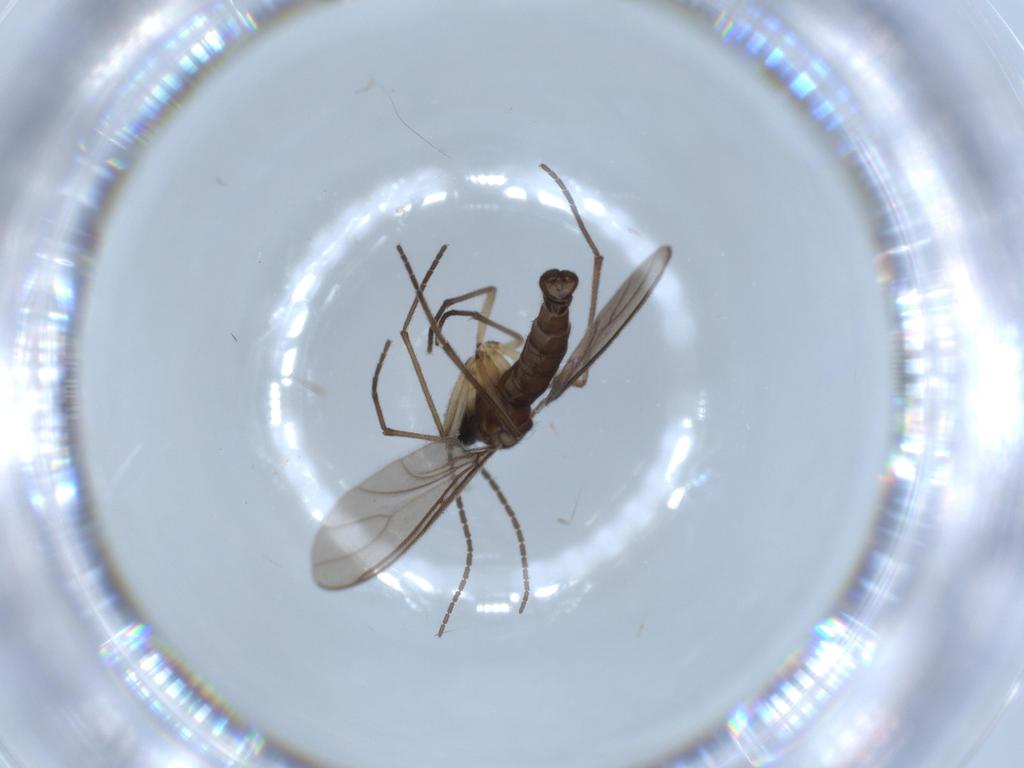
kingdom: Animalia
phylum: Arthropoda
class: Insecta
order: Diptera
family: Sciaridae
